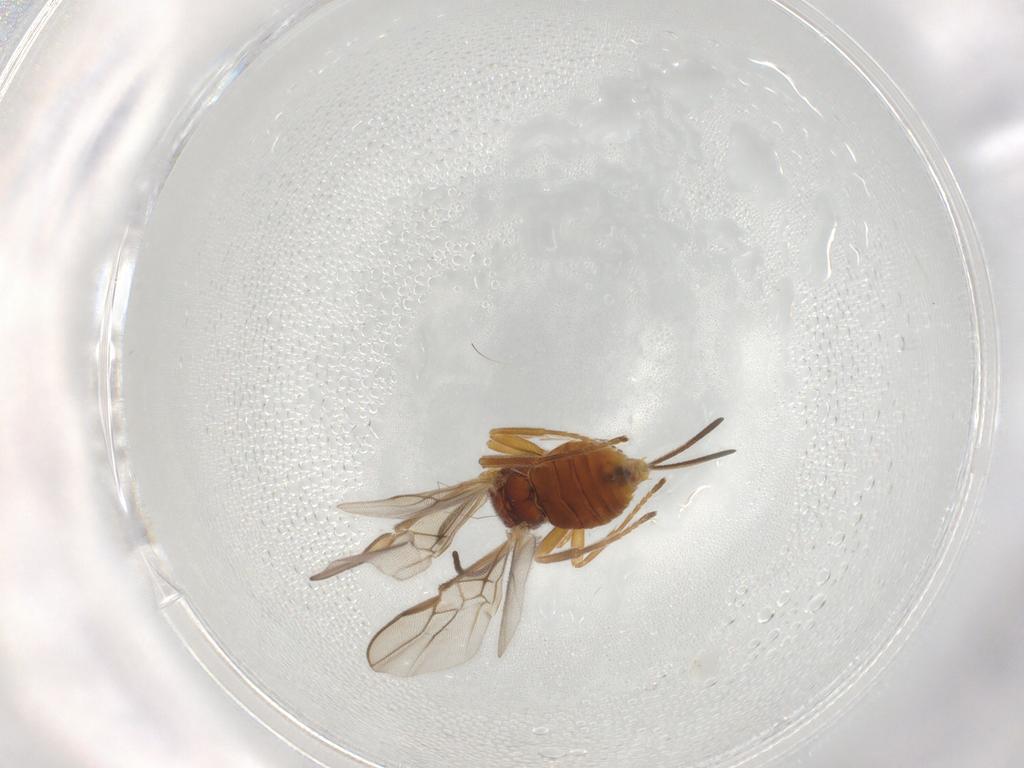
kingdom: Animalia
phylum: Arthropoda
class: Insecta
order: Hymenoptera
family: Braconidae
